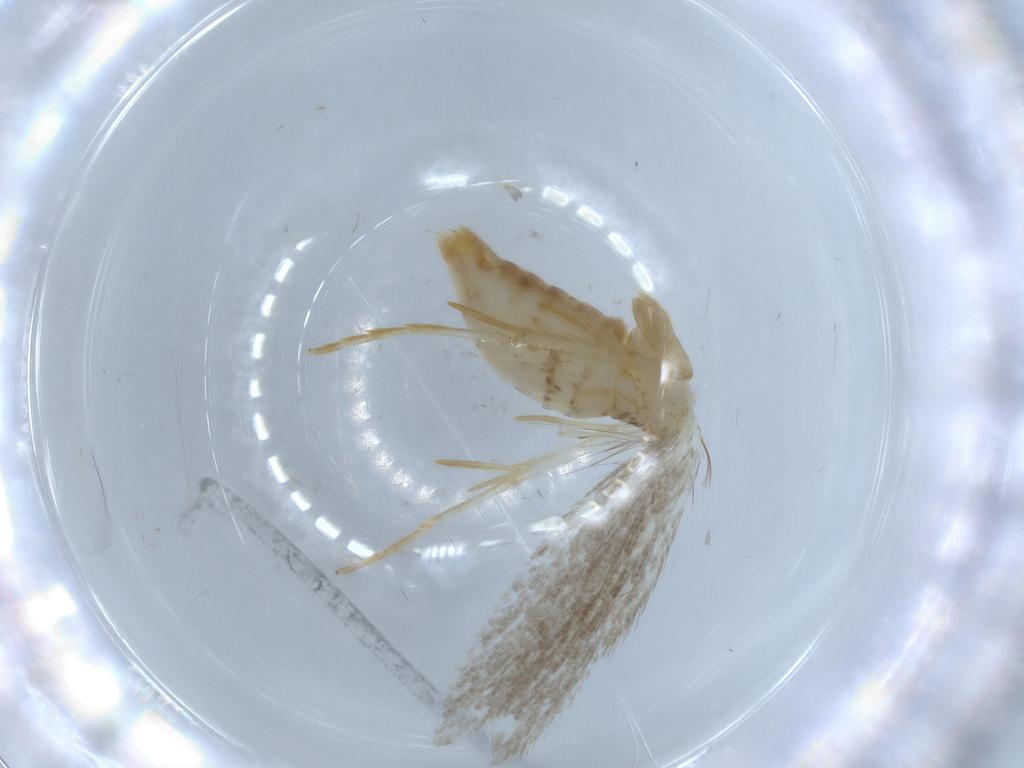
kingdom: Animalia
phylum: Arthropoda
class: Insecta
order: Lepidoptera
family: Tineidae
